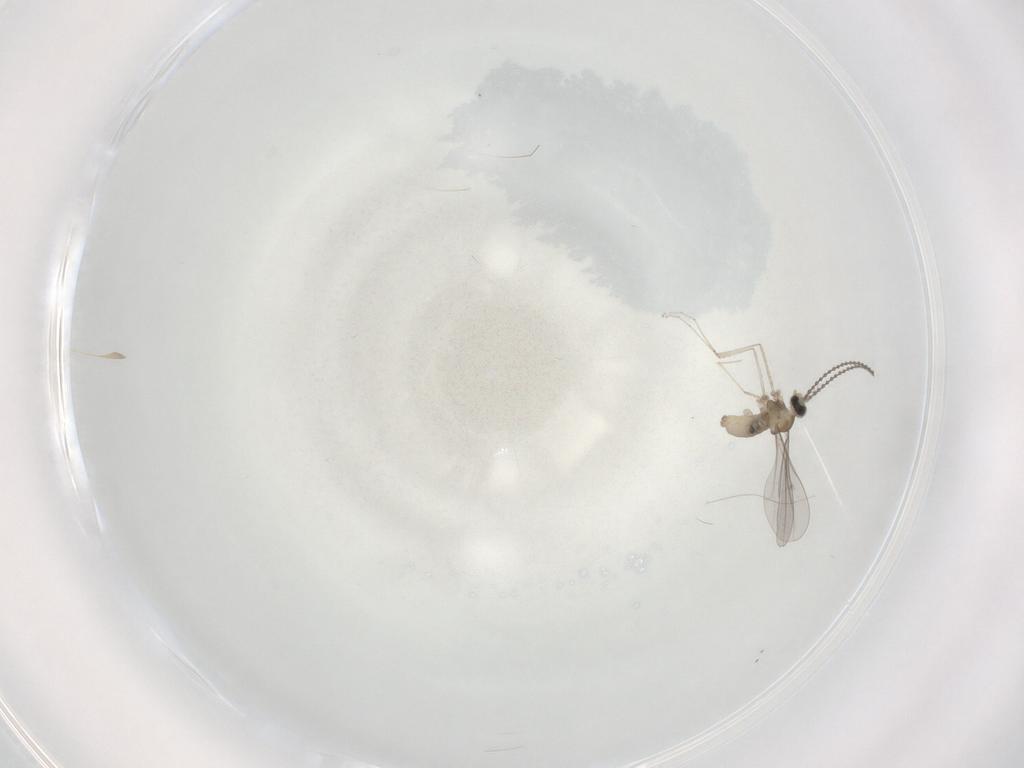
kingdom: Animalia
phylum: Arthropoda
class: Insecta
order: Diptera
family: Cecidomyiidae
